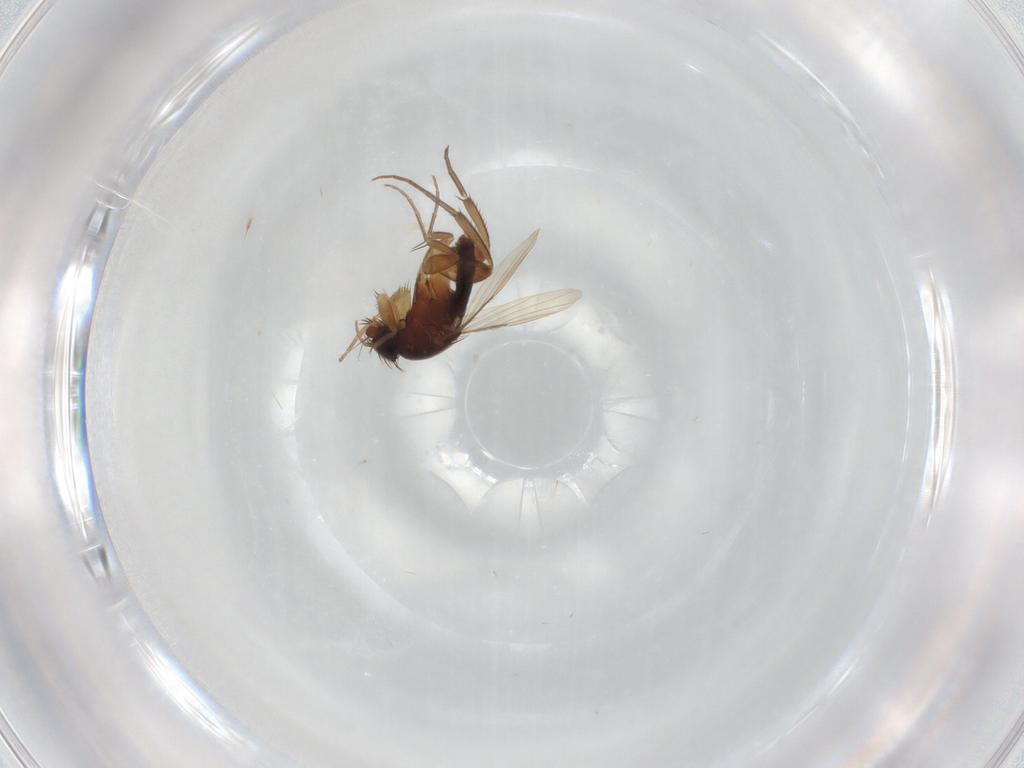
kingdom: Animalia
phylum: Arthropoda
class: Insecta
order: Diptera
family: Phoridae
